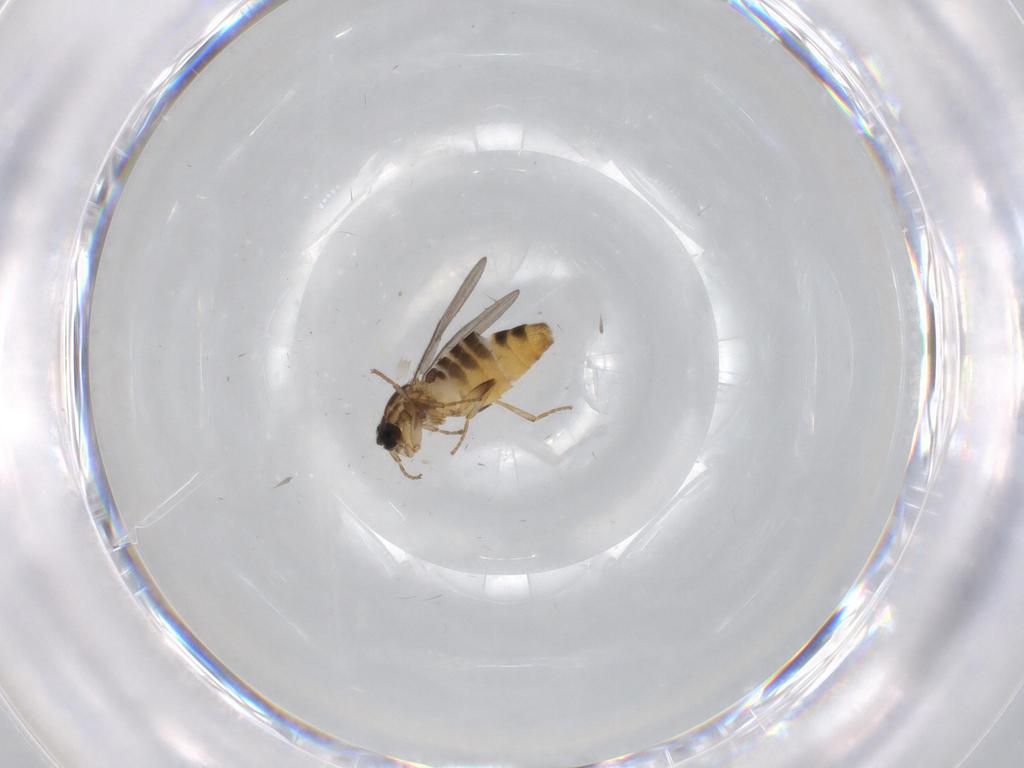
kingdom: Animalia
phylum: Arthropoda
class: Insecta
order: Diptera
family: Scatopsidae
